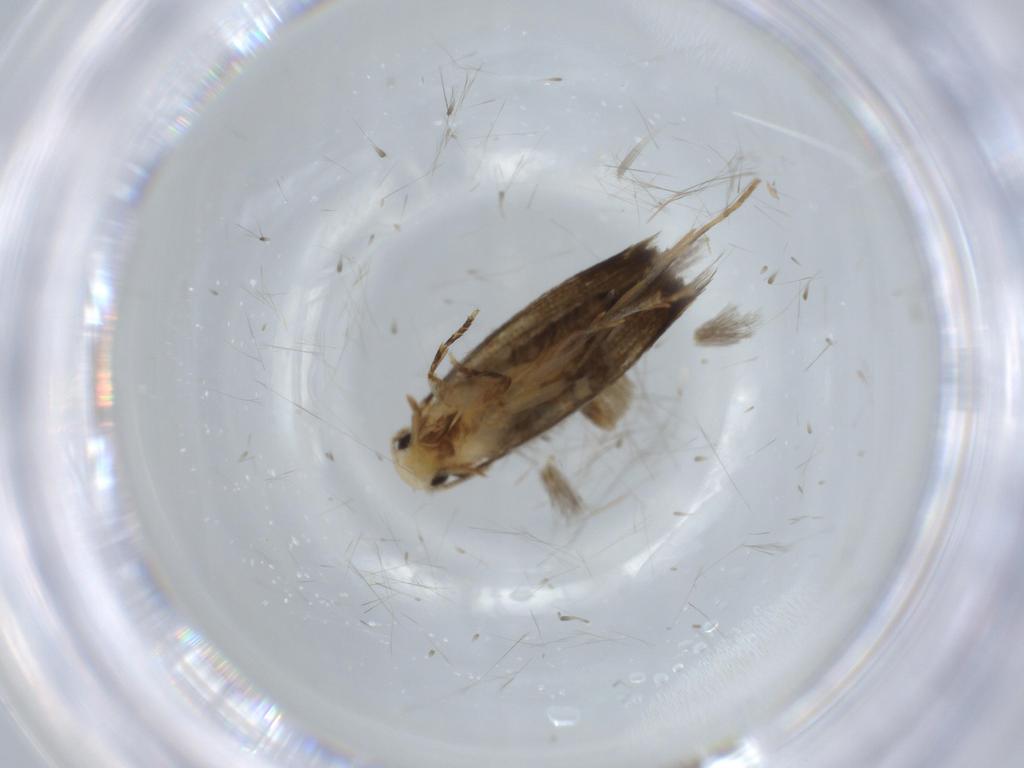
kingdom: Animalia
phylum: Arthropoda
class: Insecta
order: Lepidoptera
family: Tineidae
